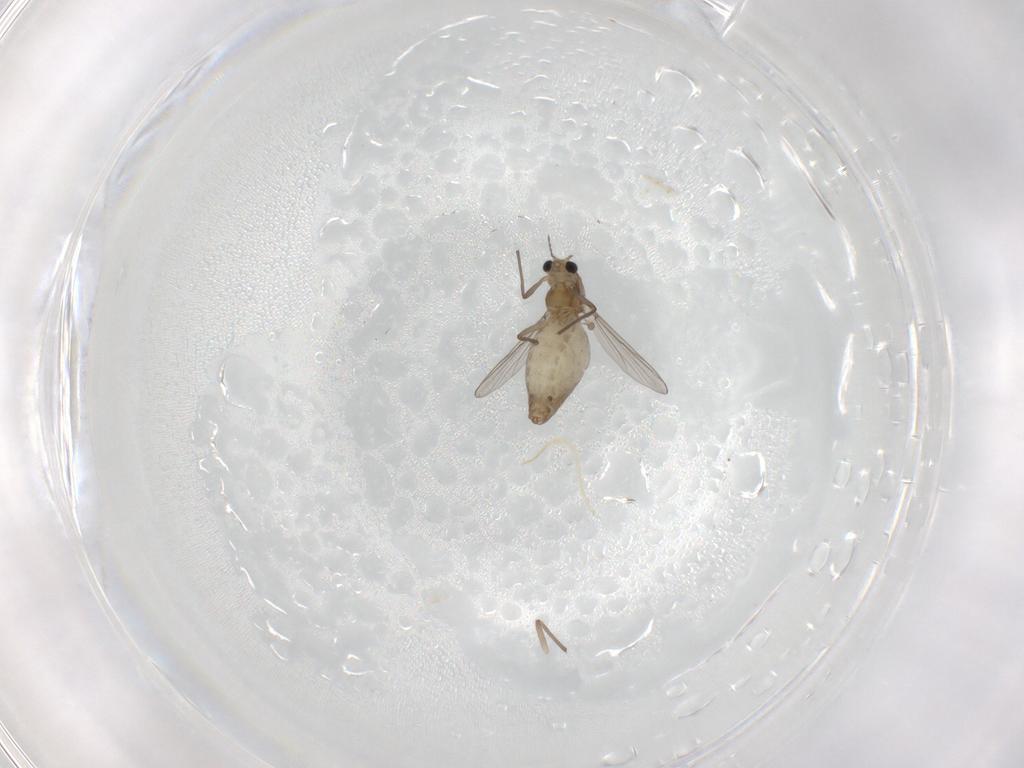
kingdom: Animalia
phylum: Arthropoda
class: Insecta
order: Diptera
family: Chironomidae
